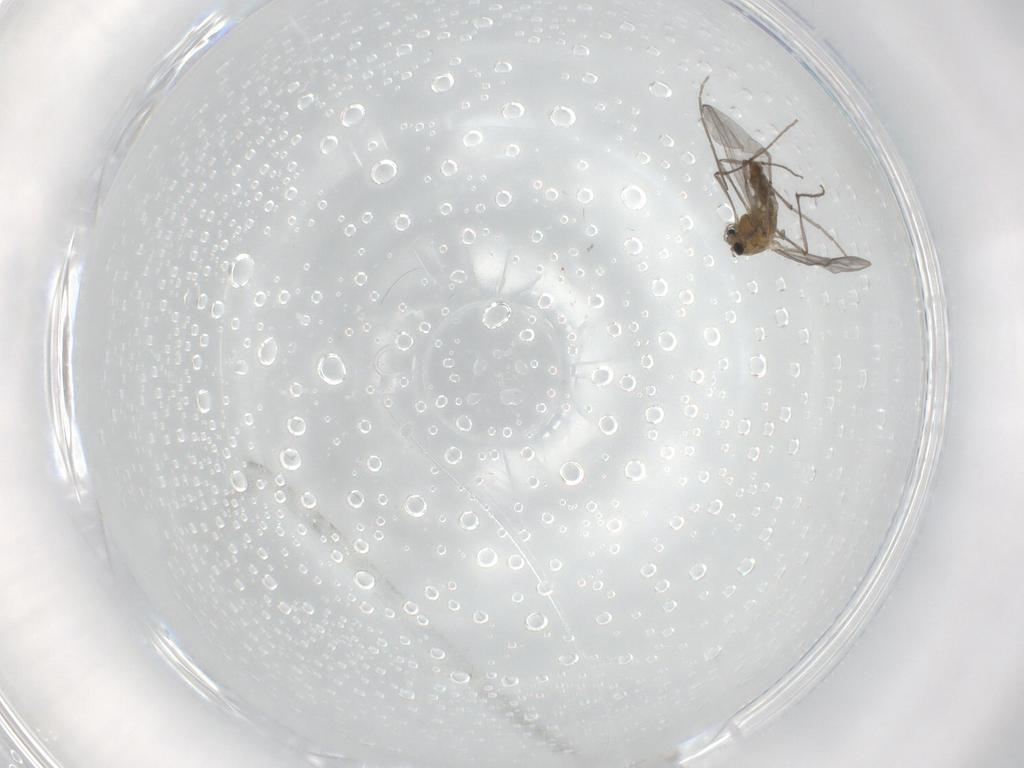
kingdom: Animalia
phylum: Arthropoda
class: Insecta
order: Diptera
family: Chironomidae
